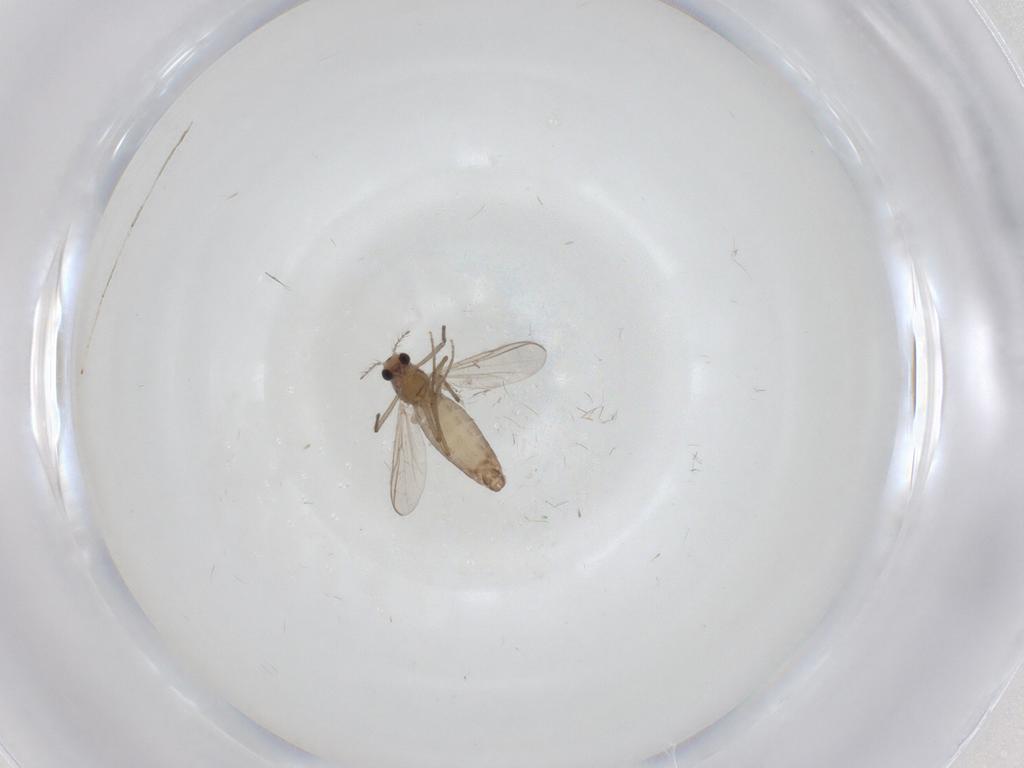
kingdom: Animalia
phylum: Arthropoda
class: Insecta
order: Diptera
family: Chironomidae
